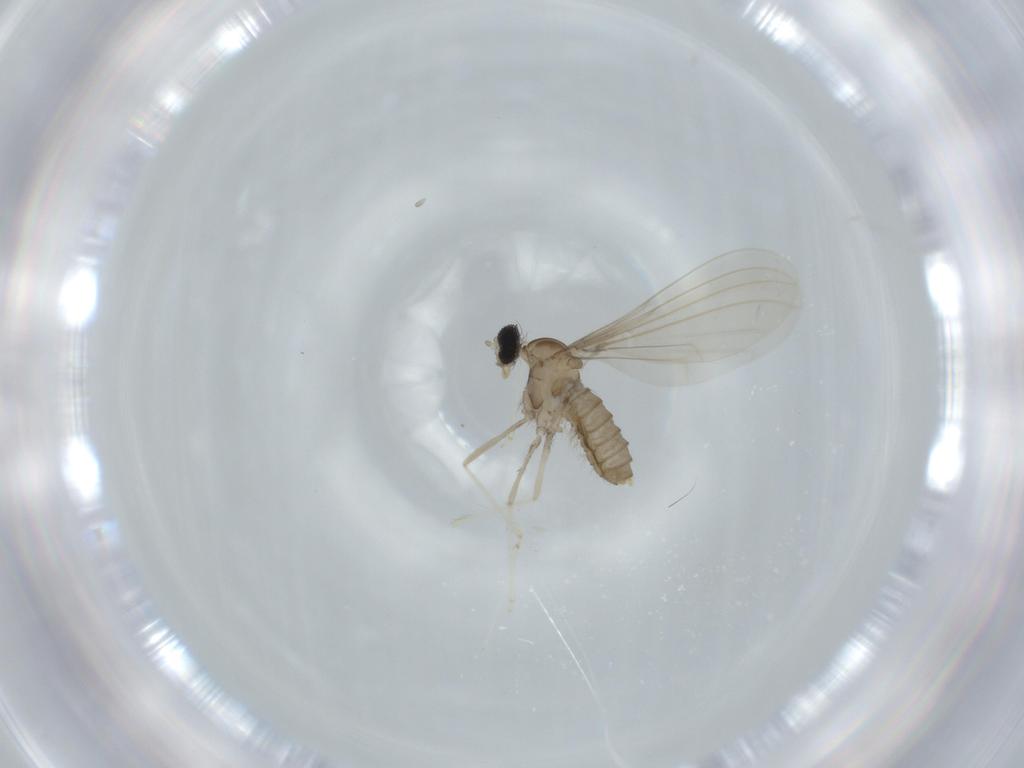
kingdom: Animalia
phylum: Arthropoda
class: Insecta
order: Diptera
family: Cecidomyiidae
